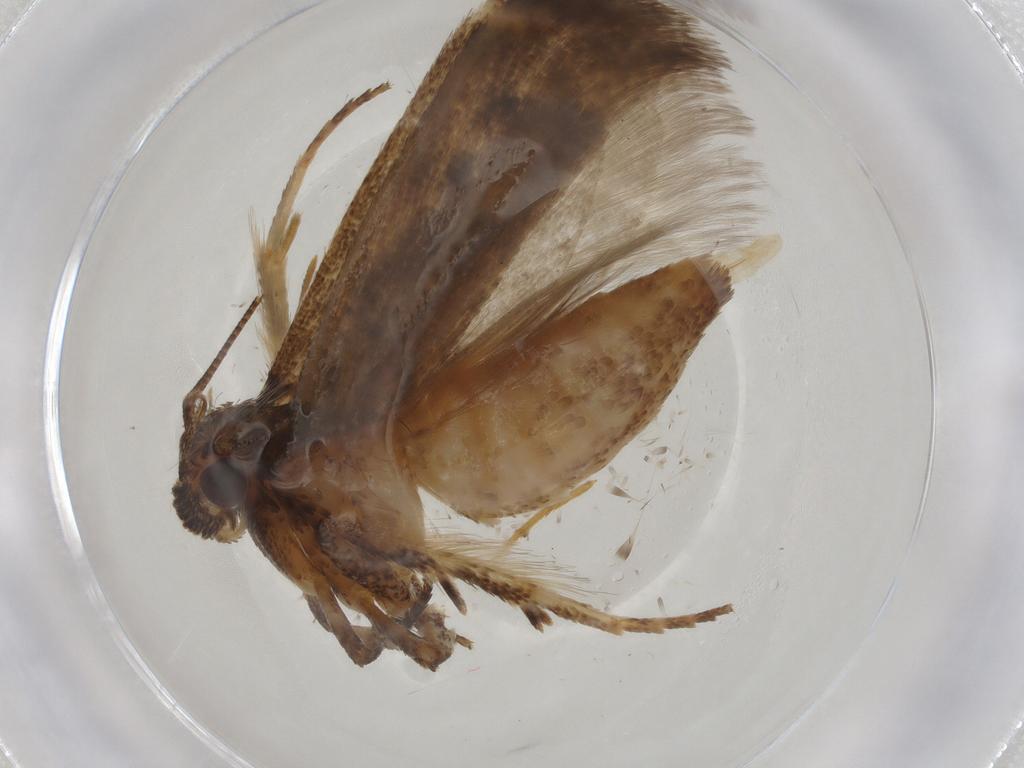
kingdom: Animalia
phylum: Arthropoda
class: Insecta
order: Lepidoptera
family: Gelechiidae
